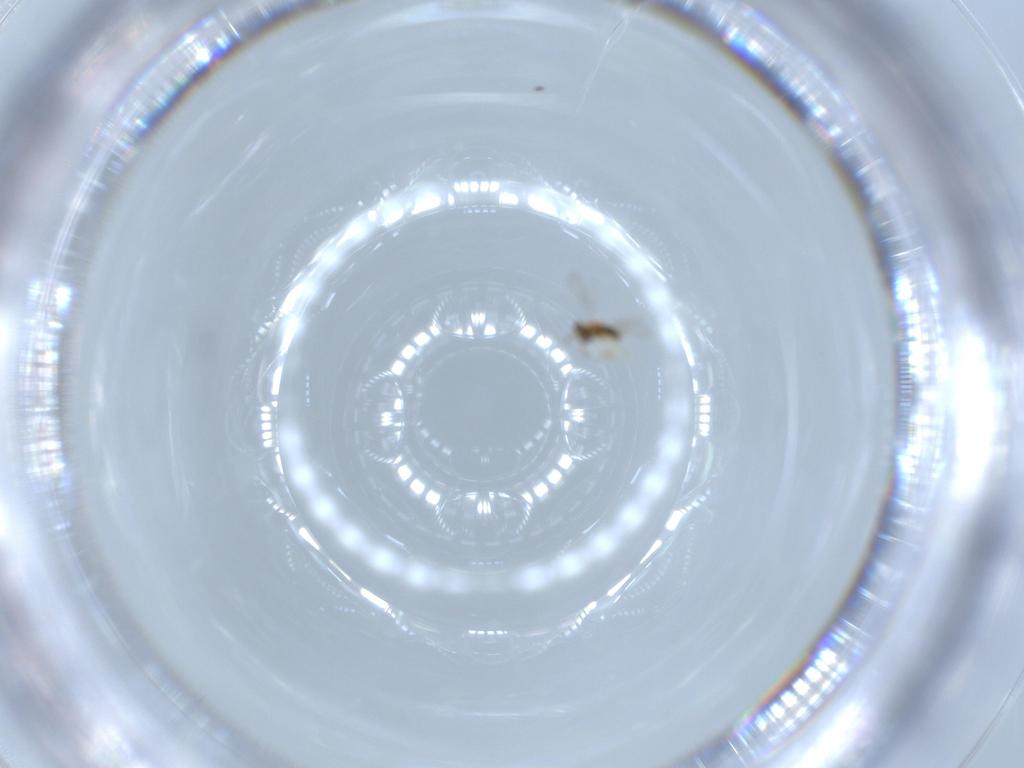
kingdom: Animalia
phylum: Arthropoda
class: Insecta
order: Hymenoptera
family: Aphelinidae
